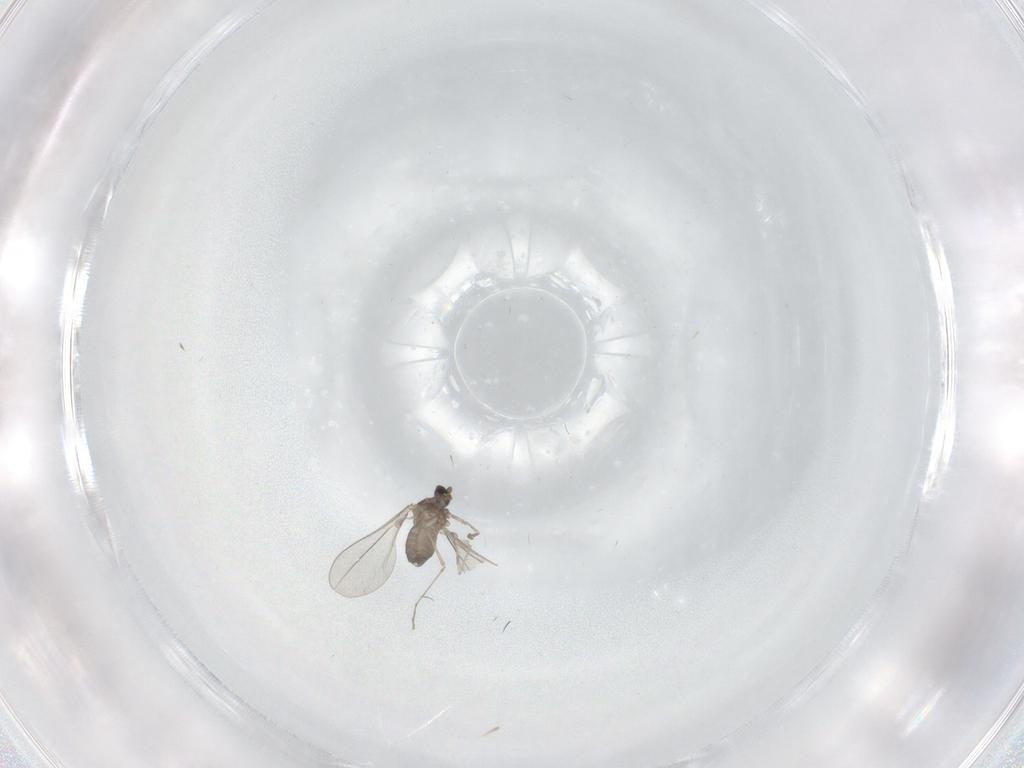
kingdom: Animalia
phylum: Arthropoda
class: Insecta
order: Diptera
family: Cecidomyiidae
